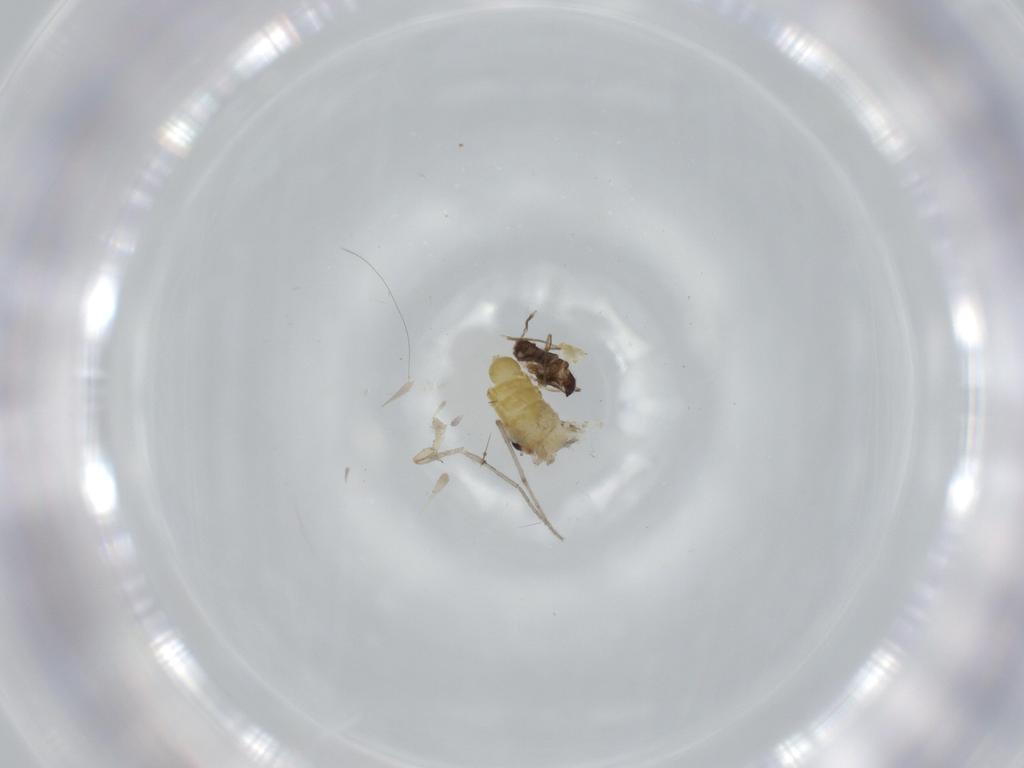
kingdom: Animalia
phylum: Arthropoda
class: Insecta
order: Diptera
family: Chironomidae
